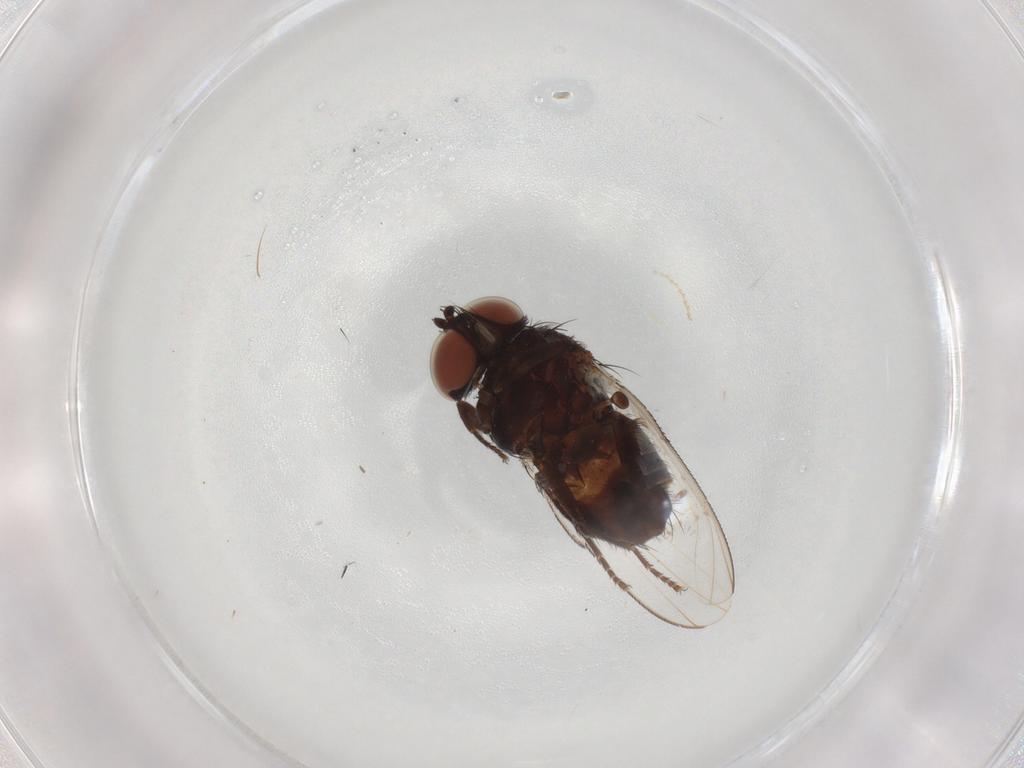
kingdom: Animalia
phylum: Arthropoda
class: Insecta
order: Diptera
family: Milichiidae
